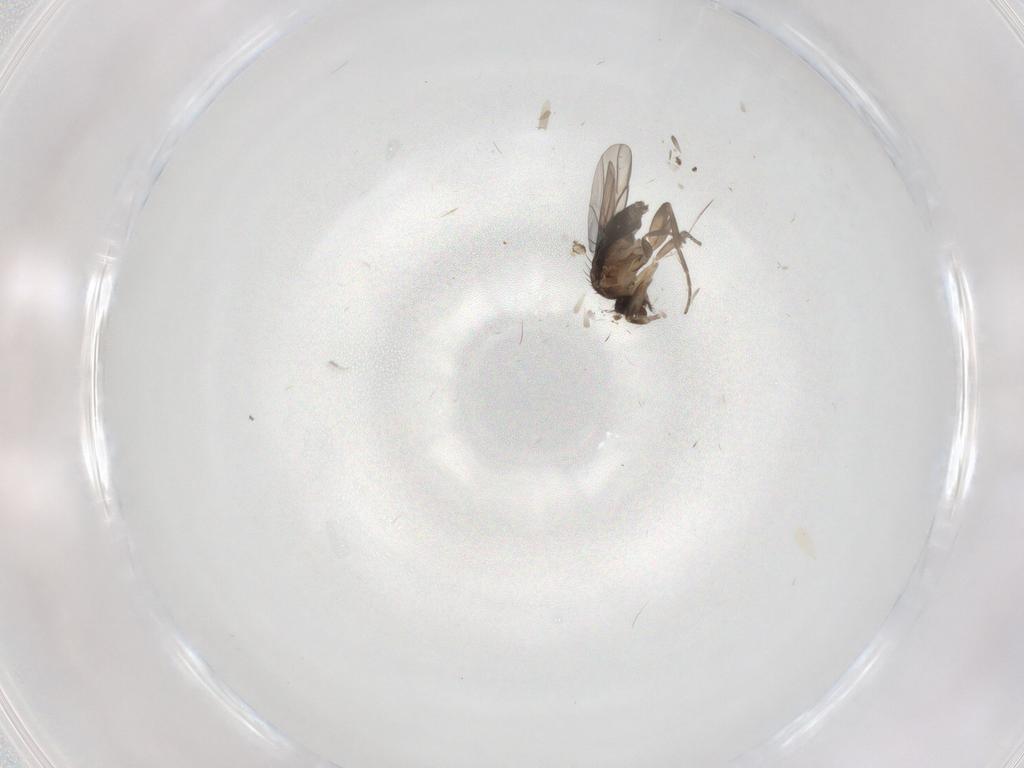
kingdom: Animalia
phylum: Arthropoda
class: Insecta
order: Diptera
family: Phoridae
